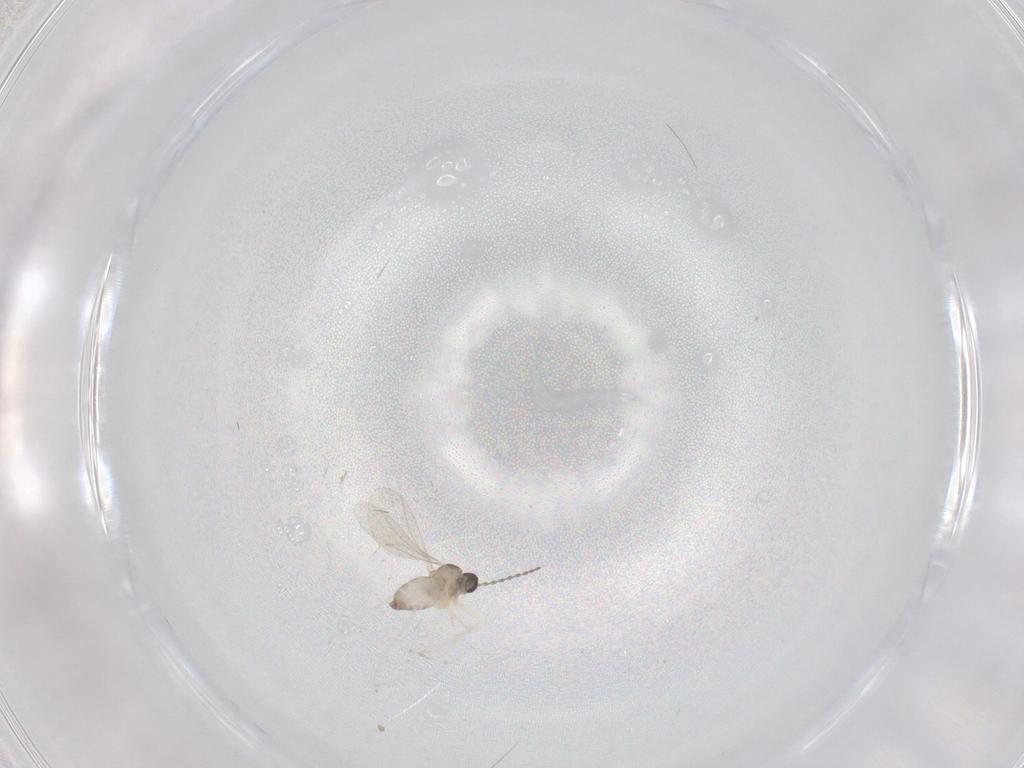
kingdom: Animalia
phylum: Arthropoda
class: Insecta
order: Diptera
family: Cecidomyiidae
